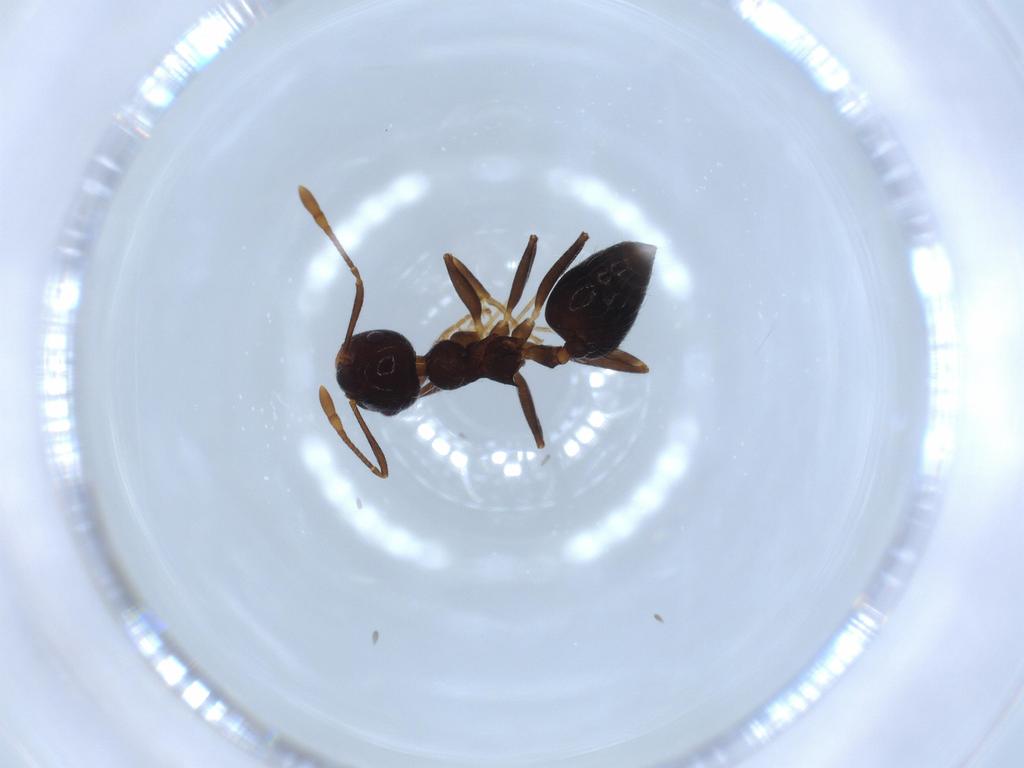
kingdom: Animalia
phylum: Arthropoda
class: Insecta
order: Hymenoptera
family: Formicidae
